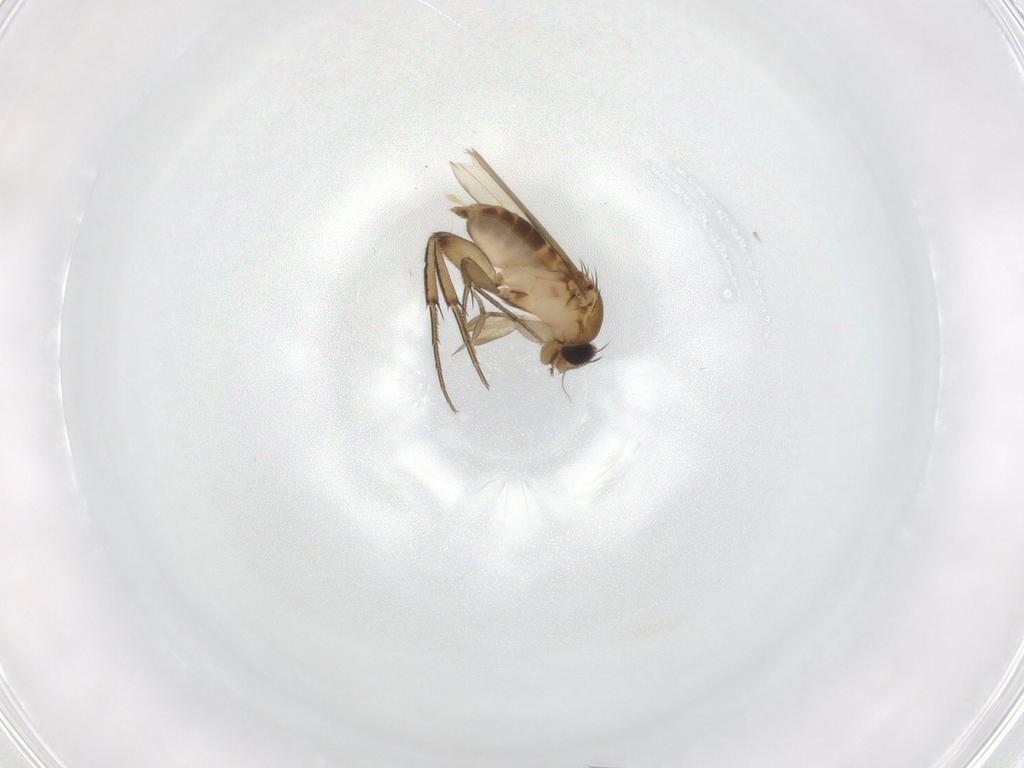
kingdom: Animalia
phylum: Arthropoda
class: Insecta
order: Diptera
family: Phoridae
